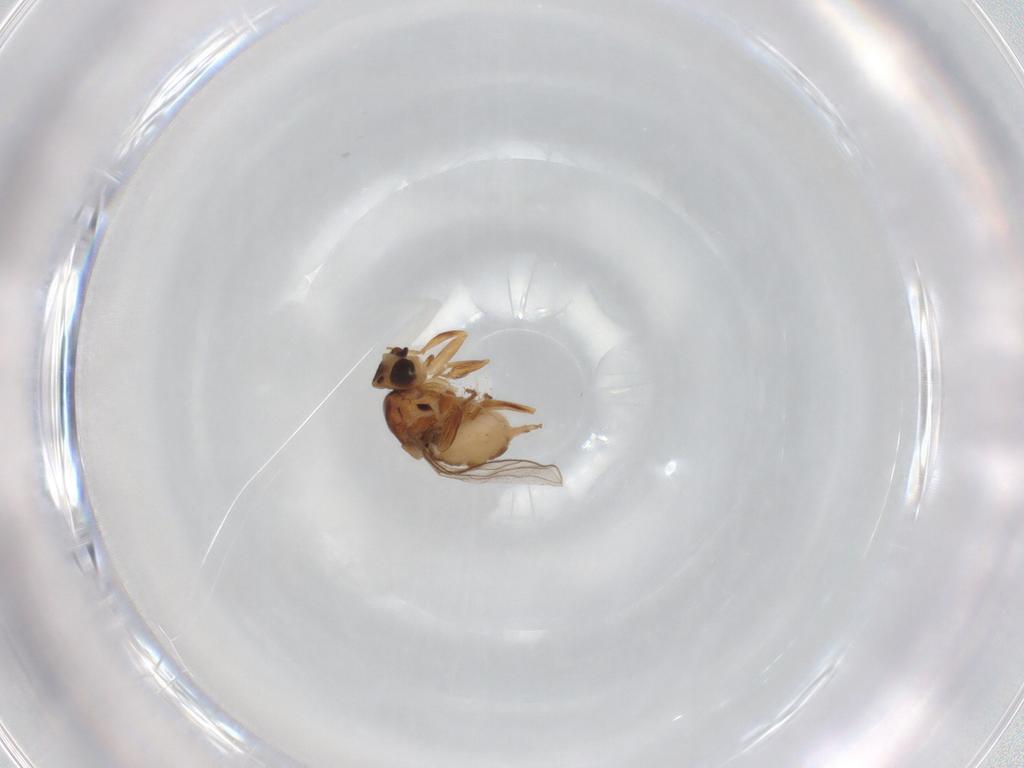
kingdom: Animalia
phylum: Arthropoda
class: Insecta
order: Diptera
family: Chloropidae
